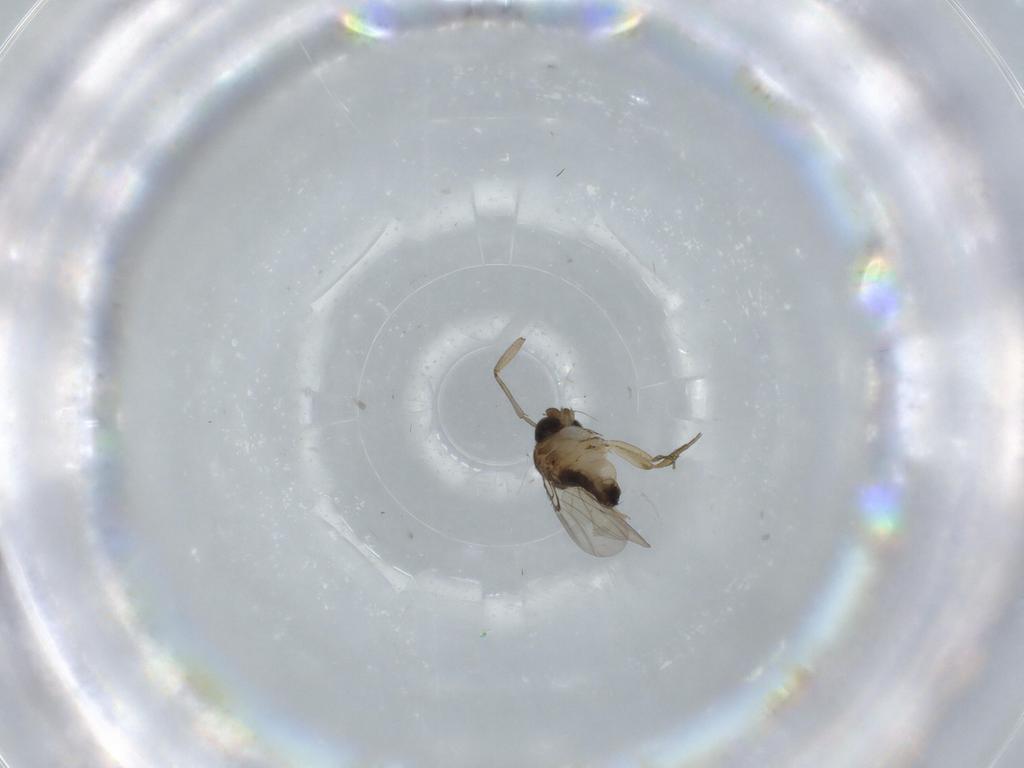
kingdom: Animalia
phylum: Arthropoda
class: Insecta
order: Diptera
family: Phoridae
